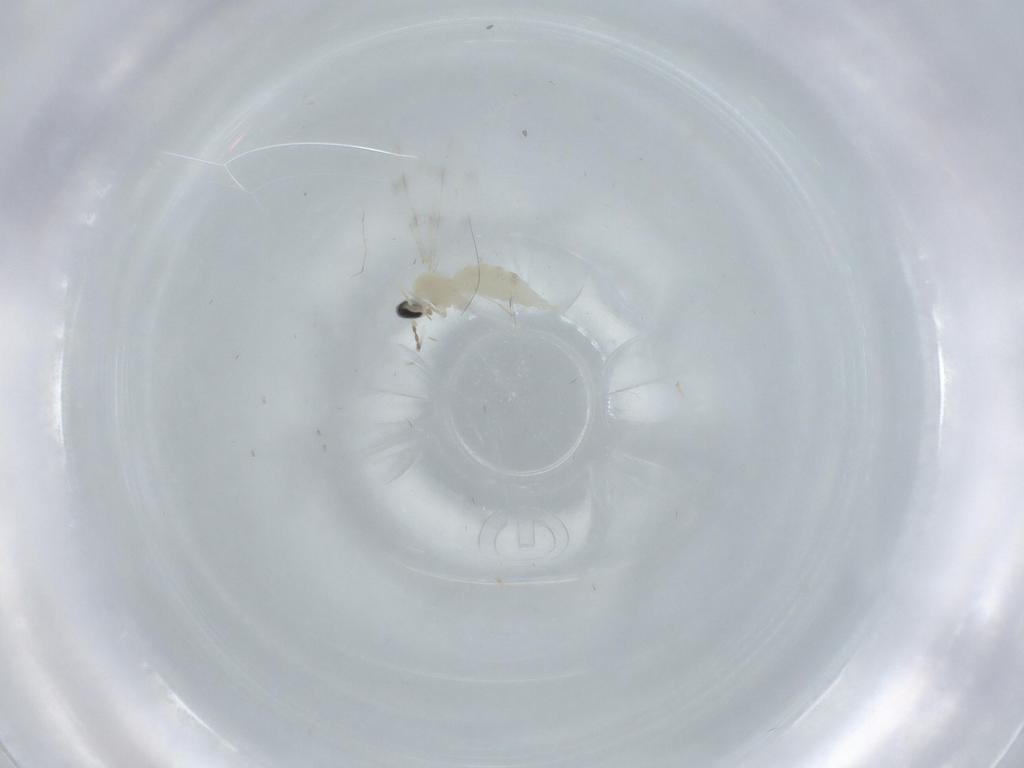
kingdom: Animalia
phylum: Arthropoda
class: Insecta
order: Diptera
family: Cecidomyiidae
